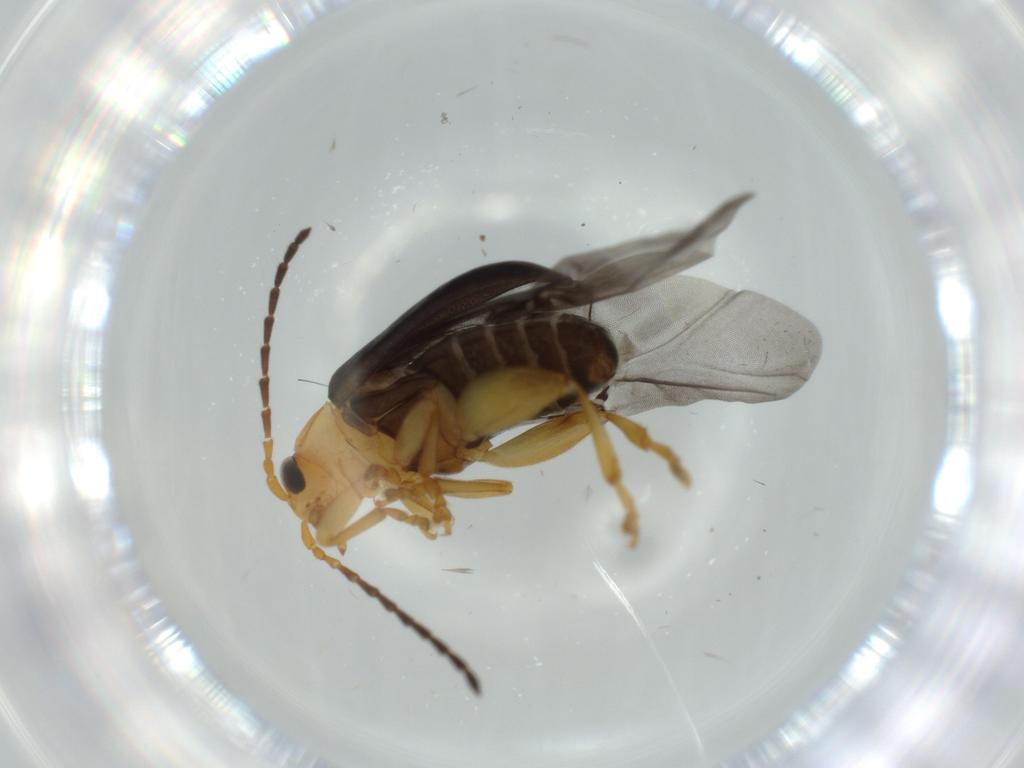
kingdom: Animalia
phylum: Arthropoda
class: Insecta
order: Coleoptera
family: Chrysomelidae
